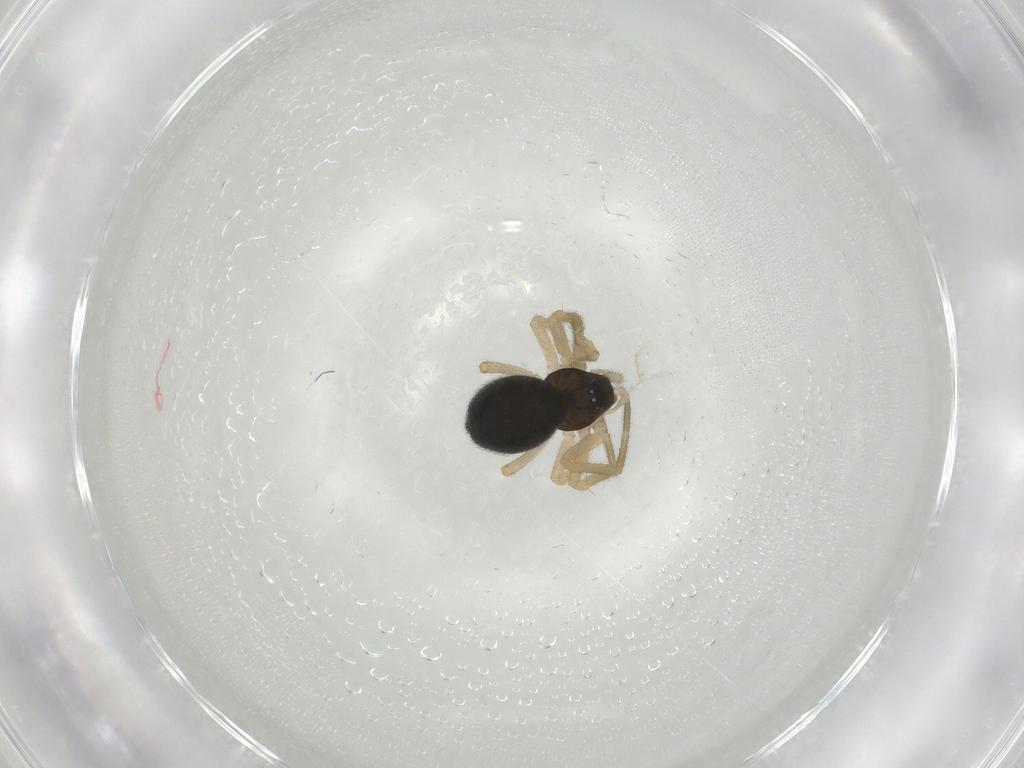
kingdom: Animalia
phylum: Arthropoda
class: Arachnida
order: Araneae
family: Linyphiidae
